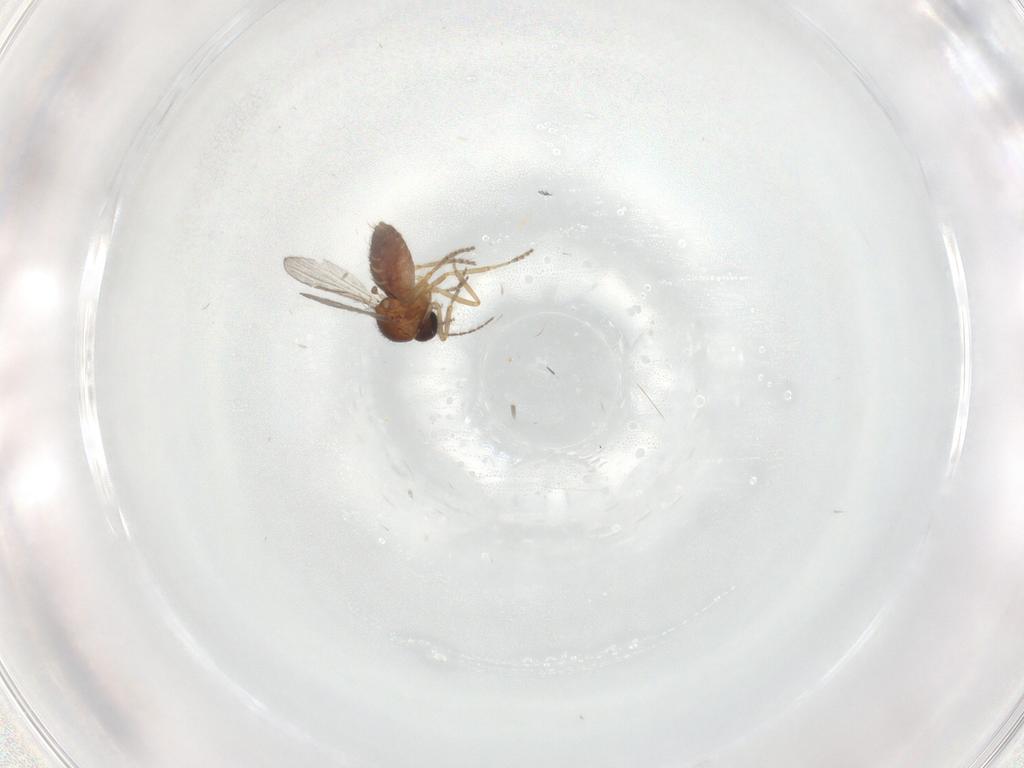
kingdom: Animalia
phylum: Arthropoda
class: Insecta
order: Diptera
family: Ceratopogonidae
